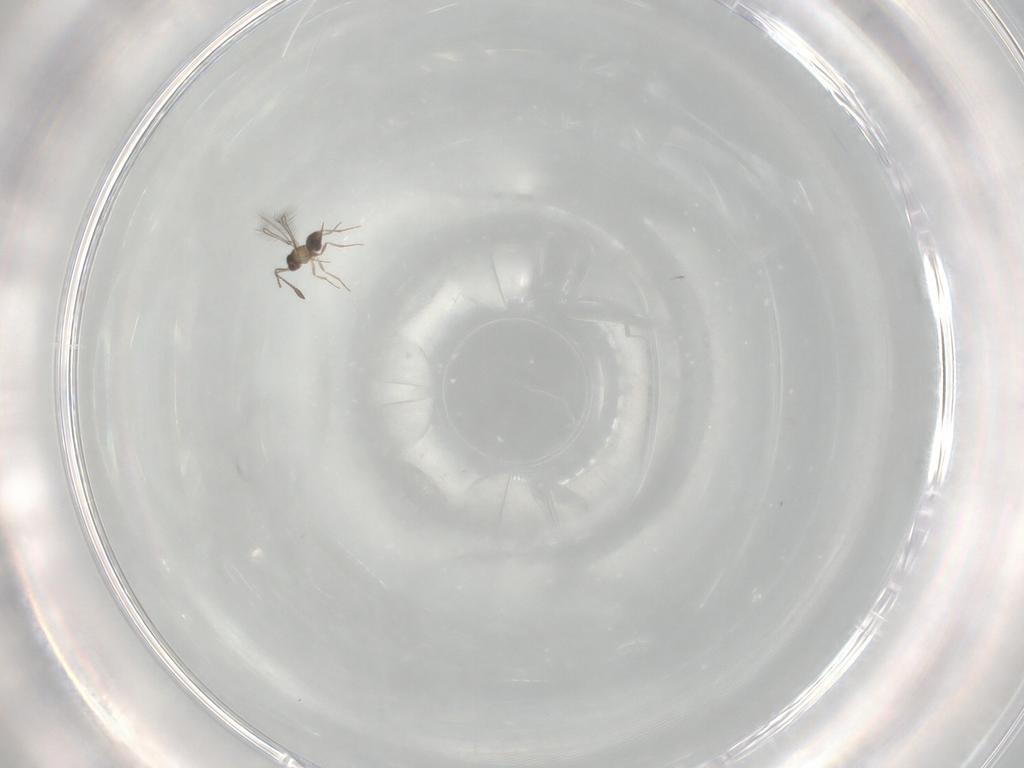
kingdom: Animalia
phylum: Arthropoda
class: Insecta
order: Hymenoptera
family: Mymaridae
